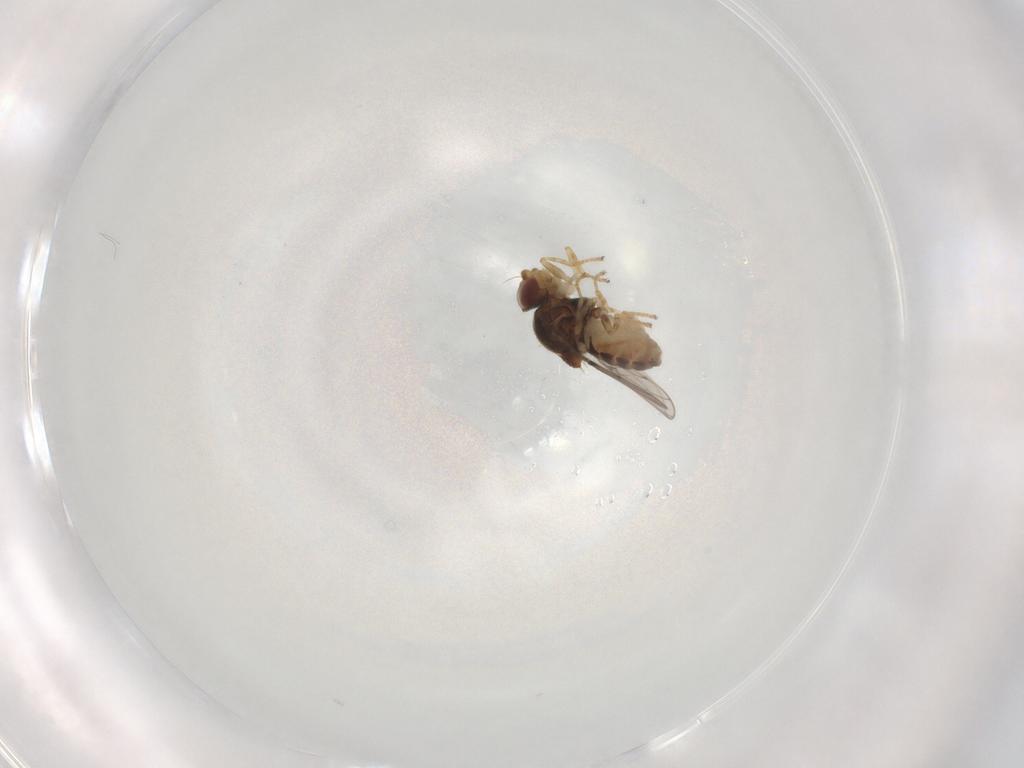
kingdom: Animalia
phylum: Arthropoda
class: Insecta
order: Diptera
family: Chloropidae
